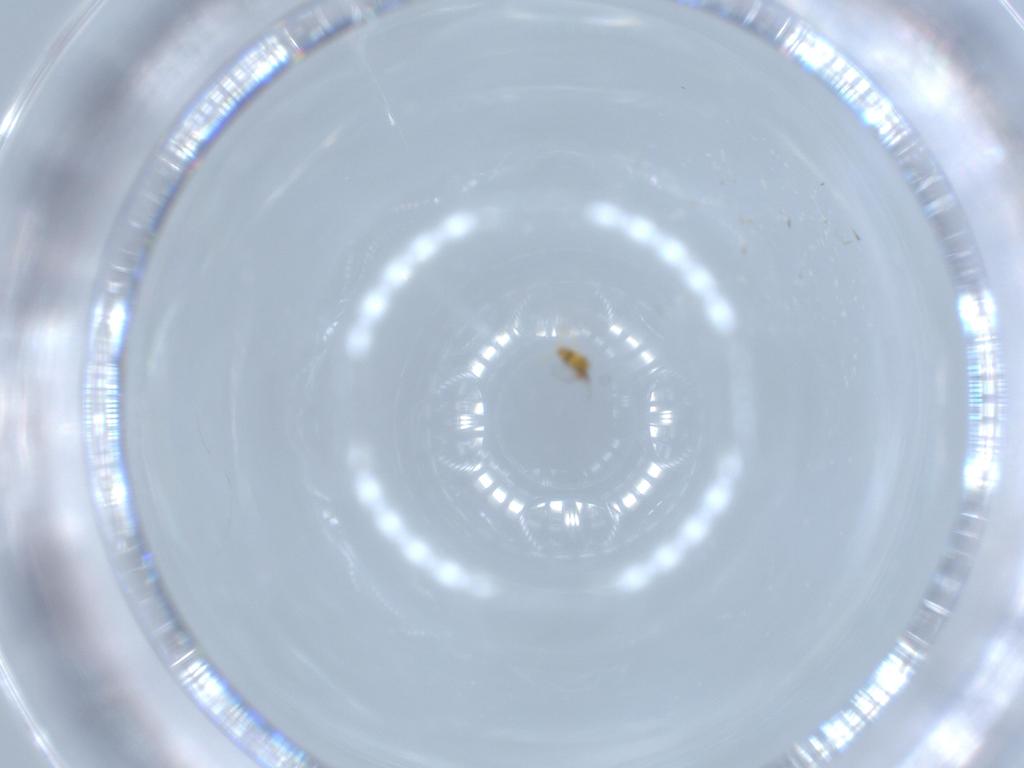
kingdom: Animalia
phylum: Arthropoda
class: Insecta
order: Hymenoptera
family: Trichogrammatidae
